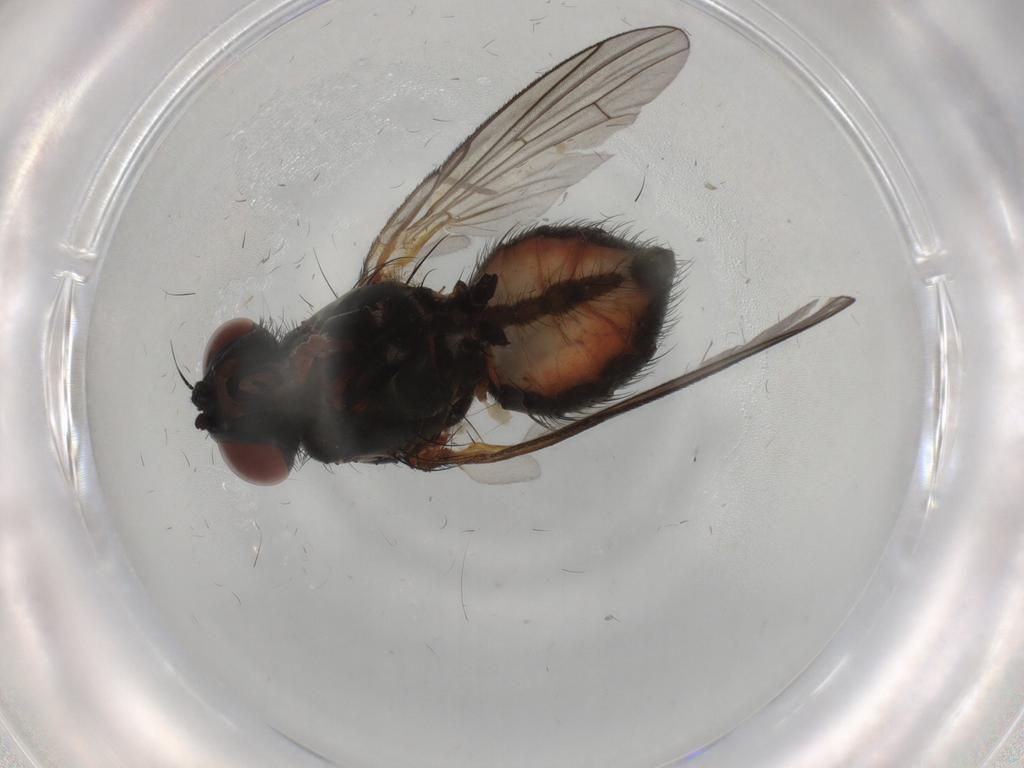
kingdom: Animalia
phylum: Arthropoda
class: Insecta
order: Diptera
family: Muscidae
